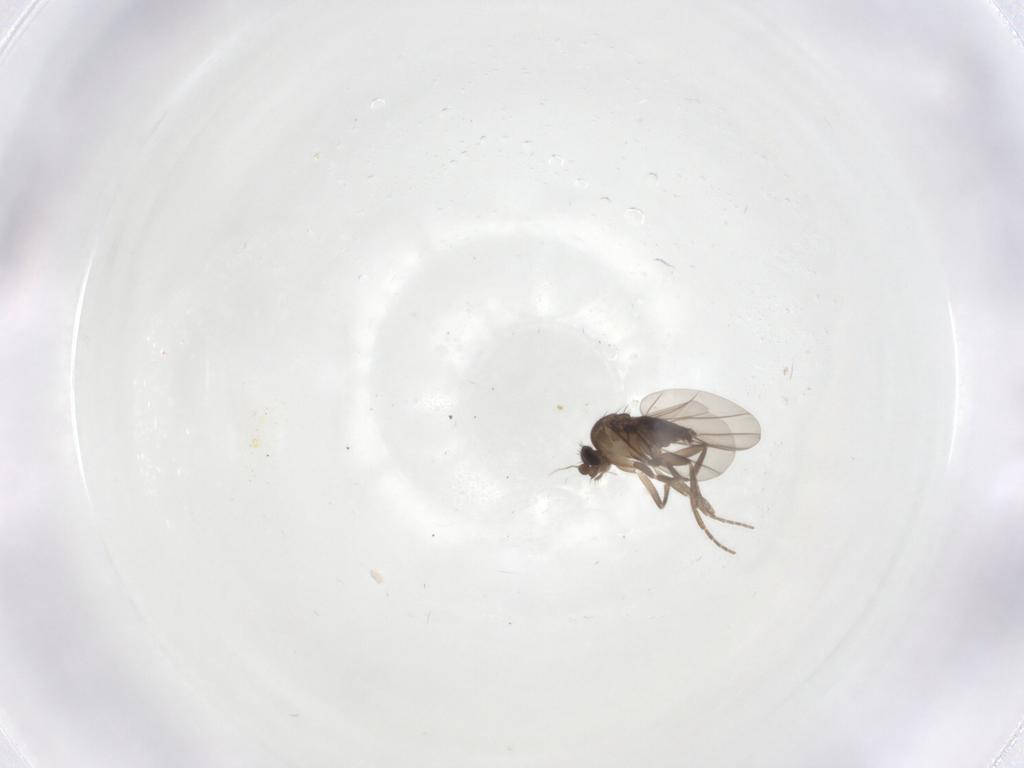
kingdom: Animalia
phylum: Arthropoda
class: Insecta
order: Diptera
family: Phoridae
